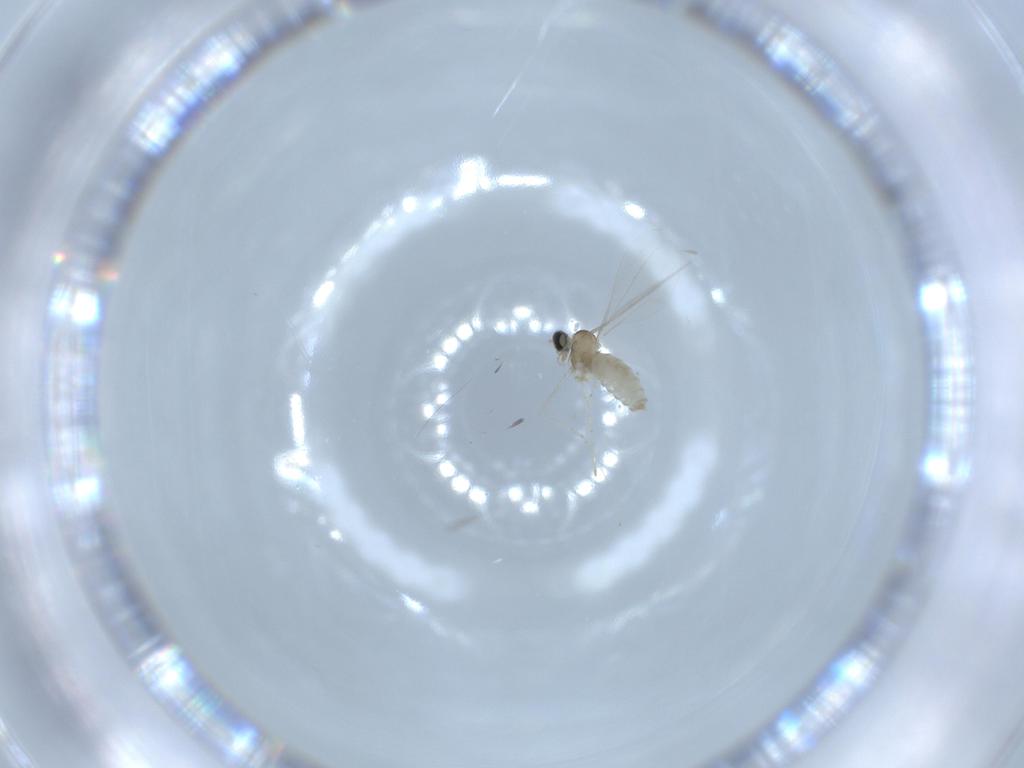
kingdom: Animalia
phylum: Arthropoda
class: Insecta
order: Diptera
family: Cecidomyiidae
